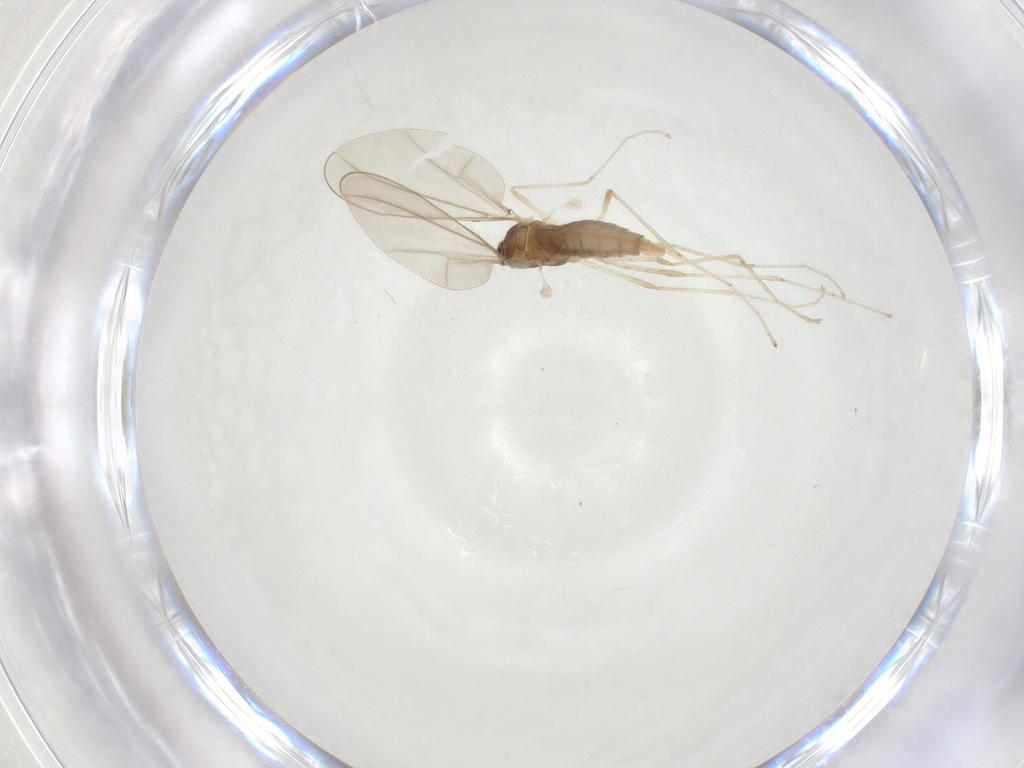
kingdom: Animalia
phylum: Arthropoda
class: Insecta
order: Diptera
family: Cecidomyiidae
